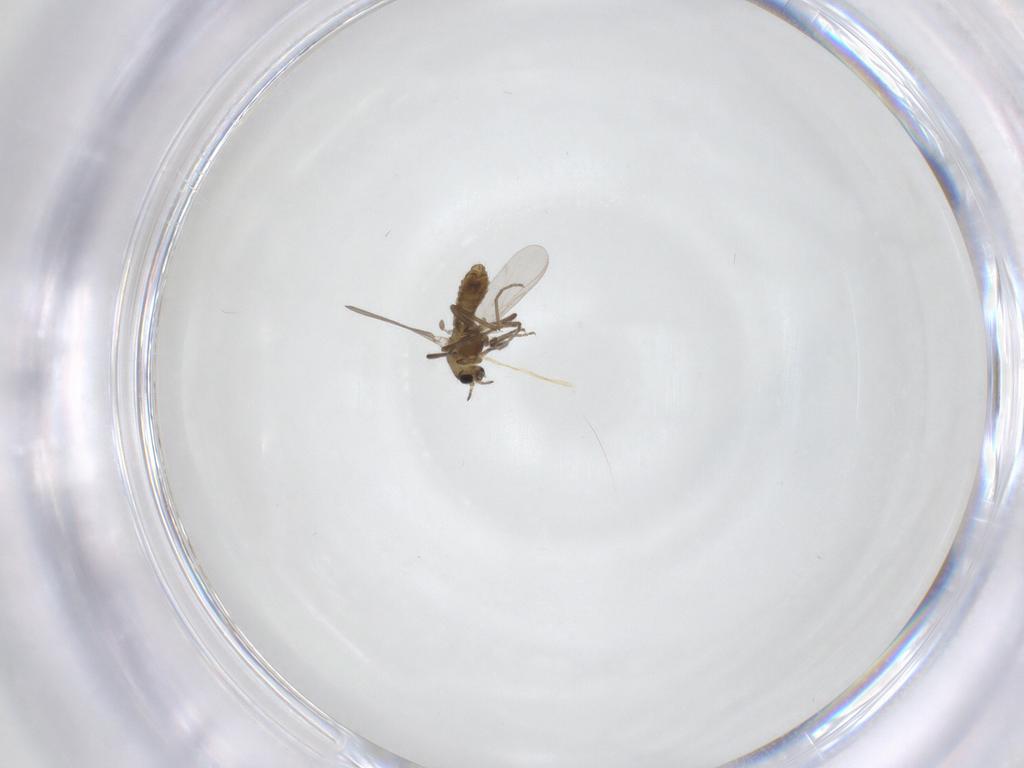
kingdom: Animalia
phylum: Arthropoda
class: Insecta
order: Diptera
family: Chironomidae
